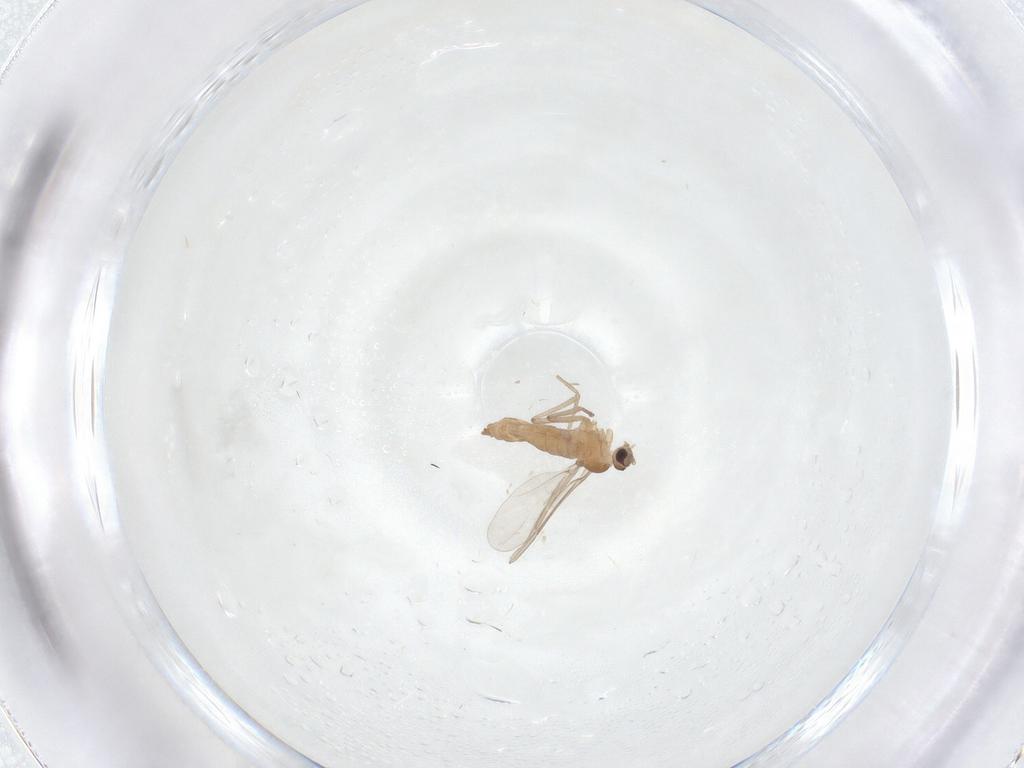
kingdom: Animalia
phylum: Arthropoda
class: Insecta
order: Diptera
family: Cecidomyiidae
